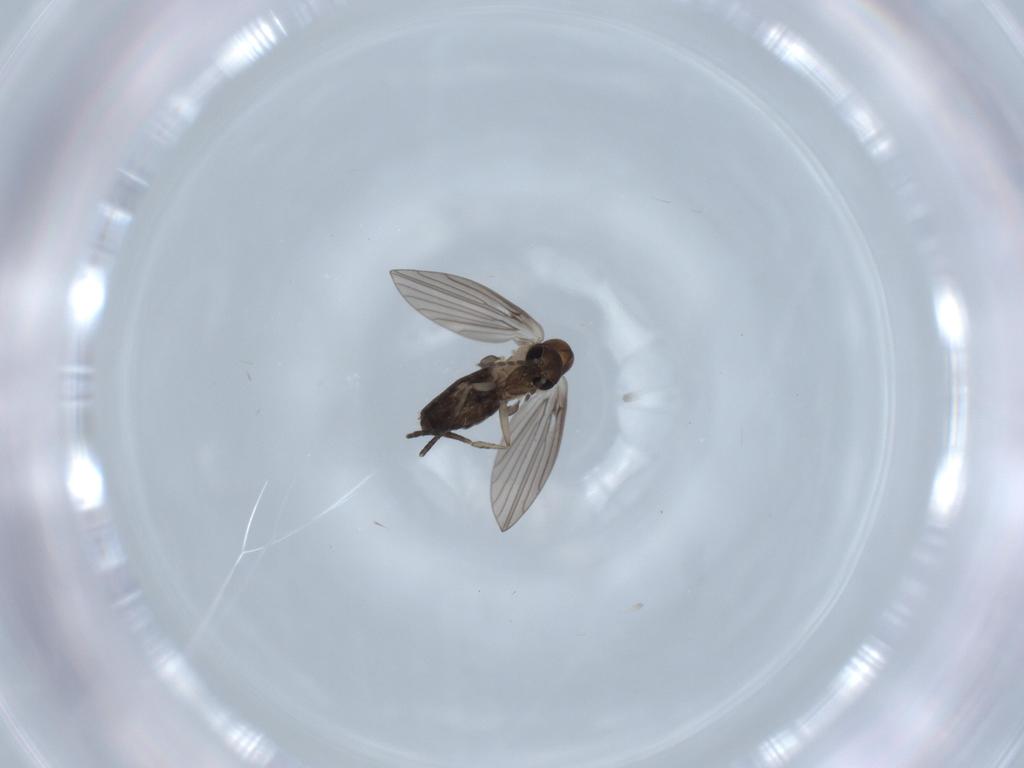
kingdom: Animalia
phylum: Arthropoda
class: Insecta
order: Diptera
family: Psychodidae
